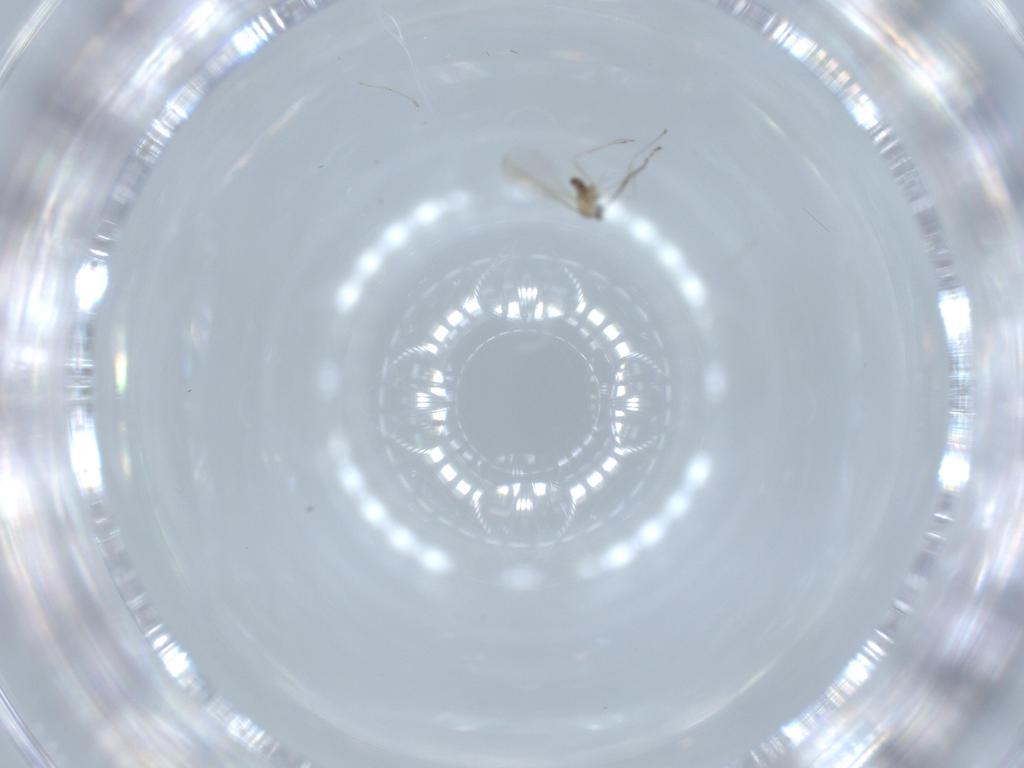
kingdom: Animalia
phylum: Arthropoda
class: Insecta
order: Diptera
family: Cecidomyiidae
